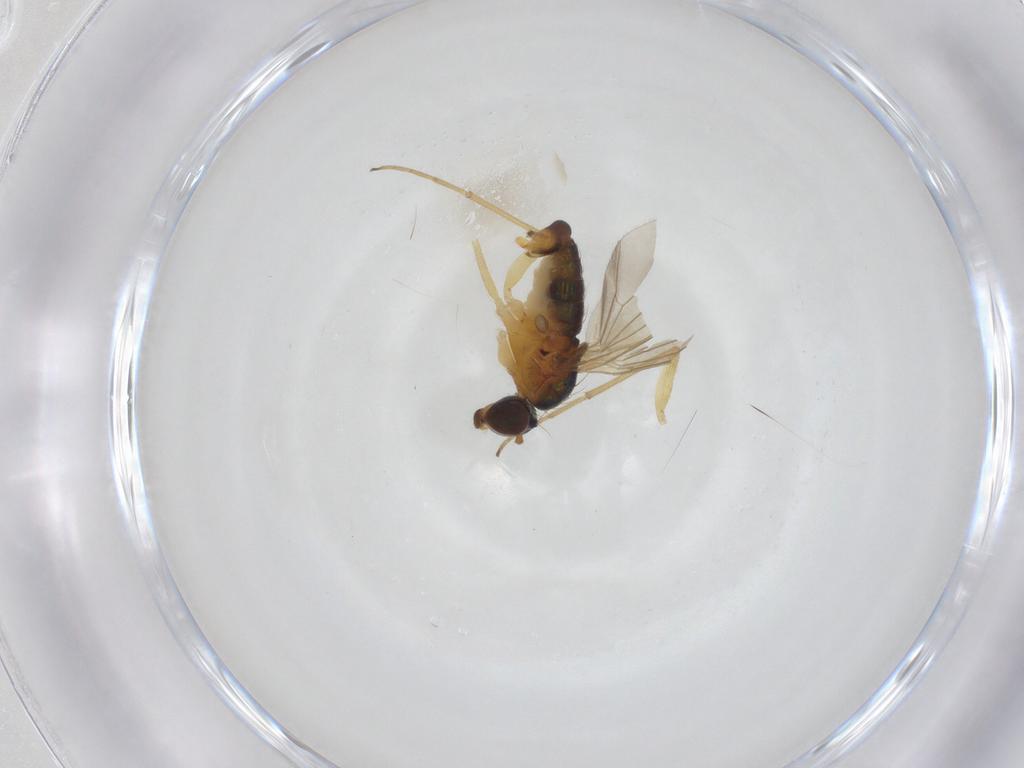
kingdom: Animalia
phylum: Arthropoda
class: Insecta
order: Diptera
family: Dolichopodidae
